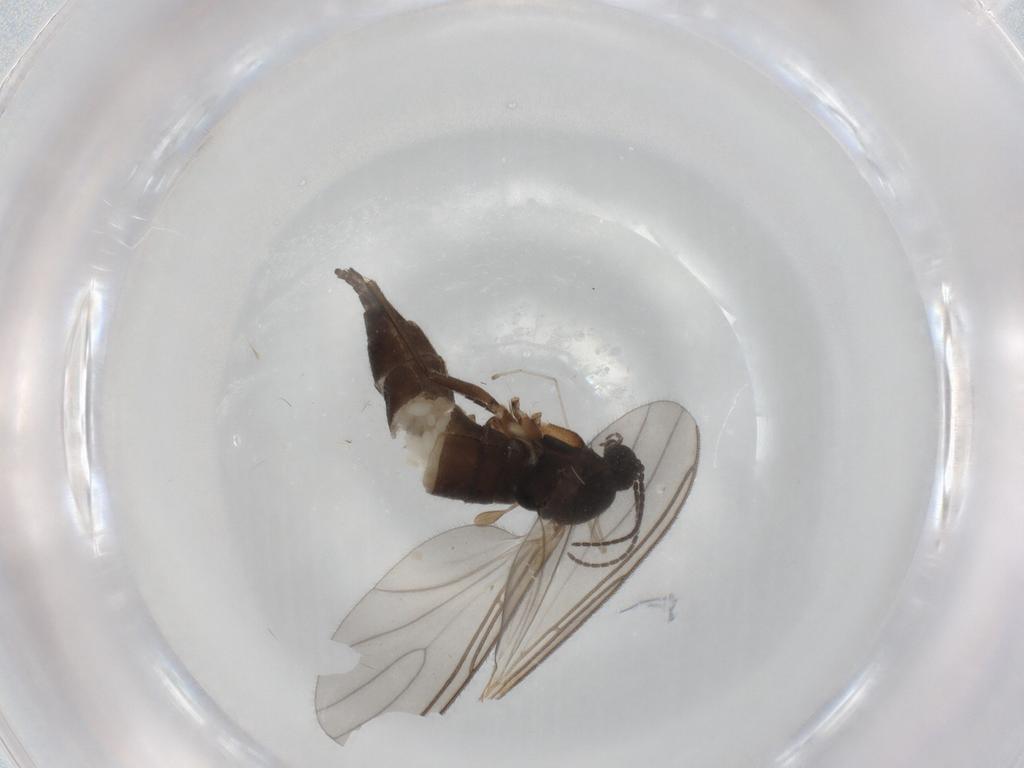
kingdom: Animalia
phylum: Arthropoda
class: Insecta
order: Diptera
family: Sciaridae
